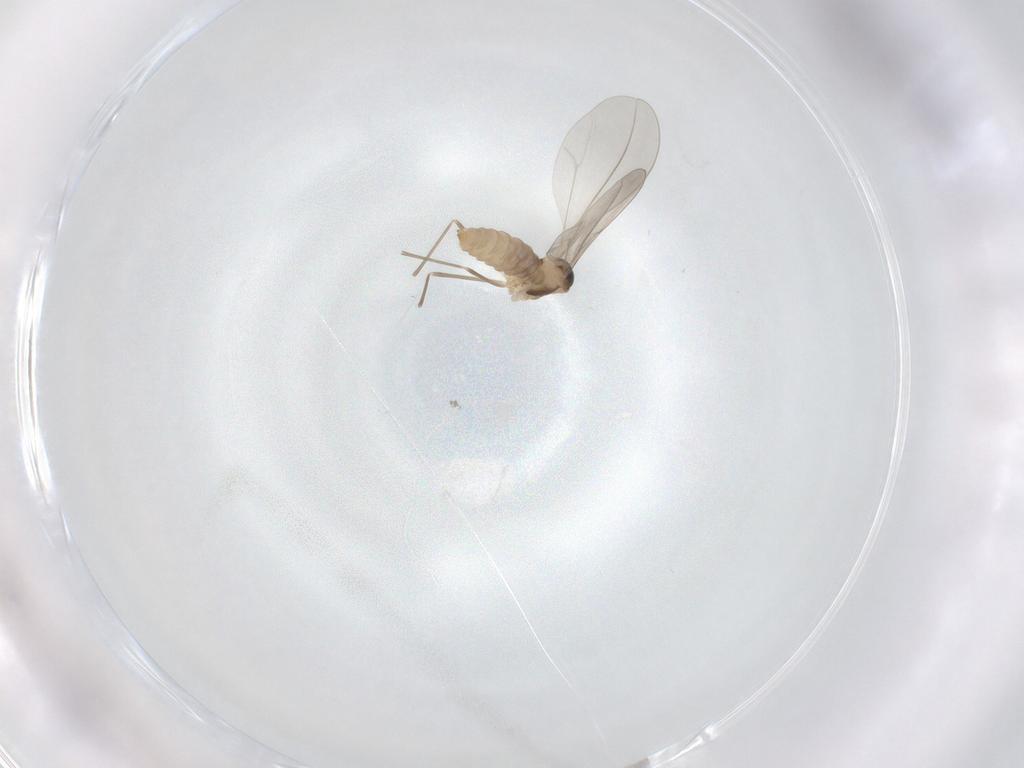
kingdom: Animalia
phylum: Arthropoda
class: Insecta
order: Diptera
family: Cecidomyiidae
